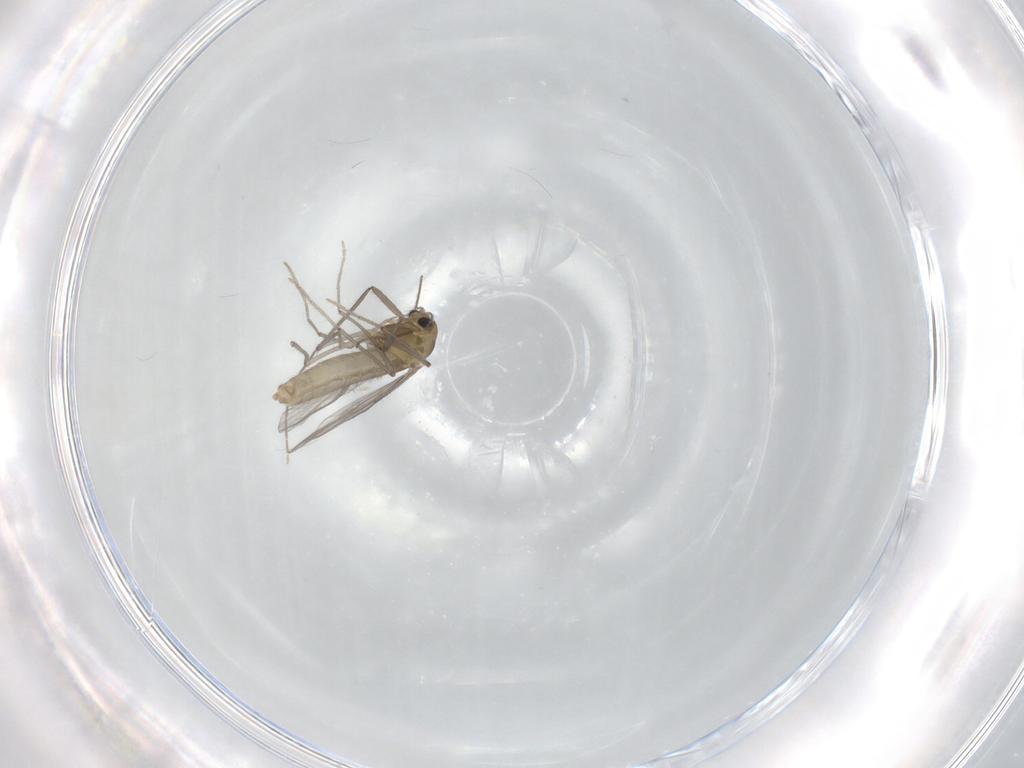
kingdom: Animalia
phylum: Arthropoda
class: Insecta
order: Diptera
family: Chironomidae
